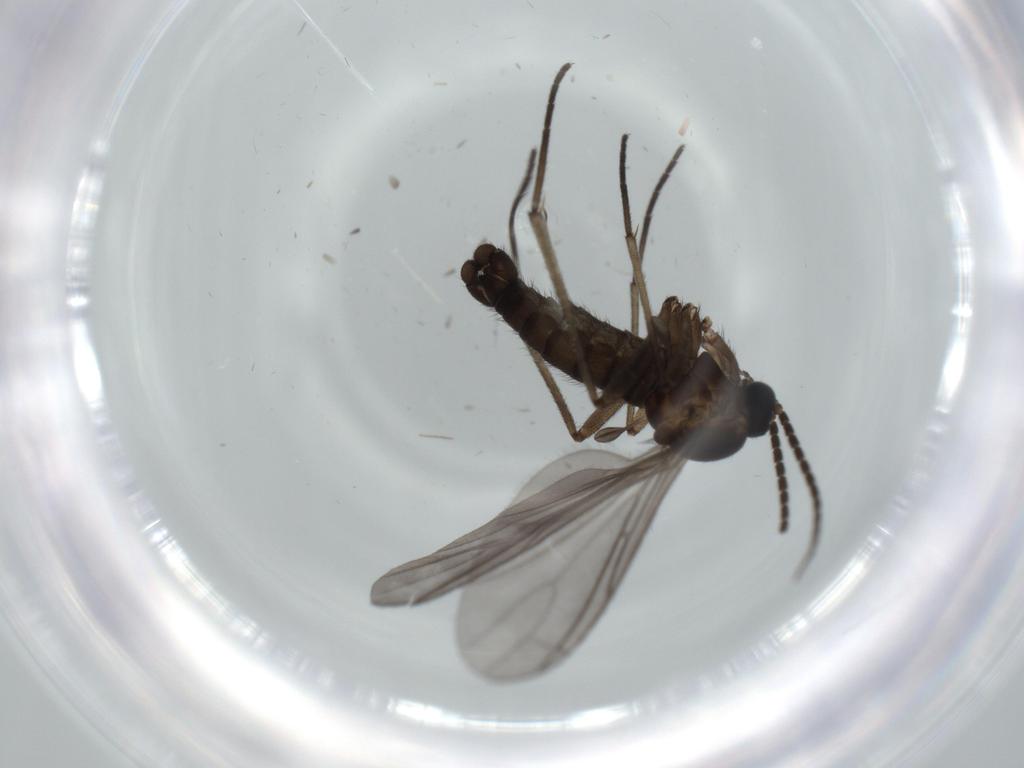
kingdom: Animalia
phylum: Arthropoda
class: Insecta
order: Diptera
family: Sciaridae
